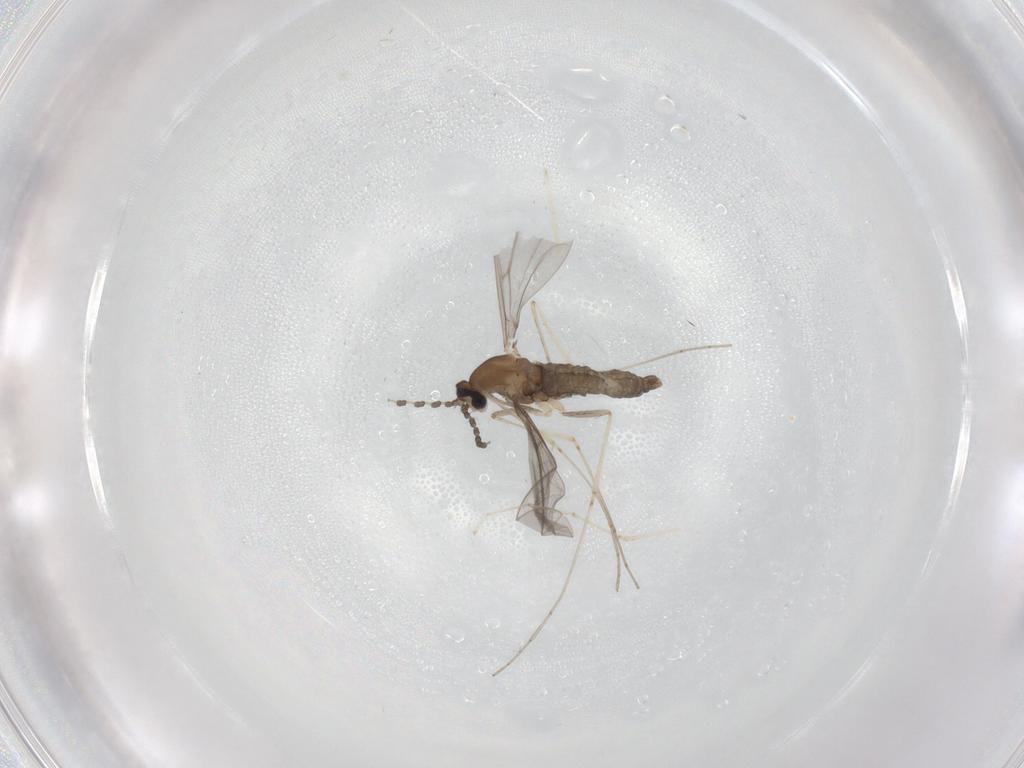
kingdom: Animalia
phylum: Arthropoda
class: Insecta
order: Diptera
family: Cecidomyiidae
